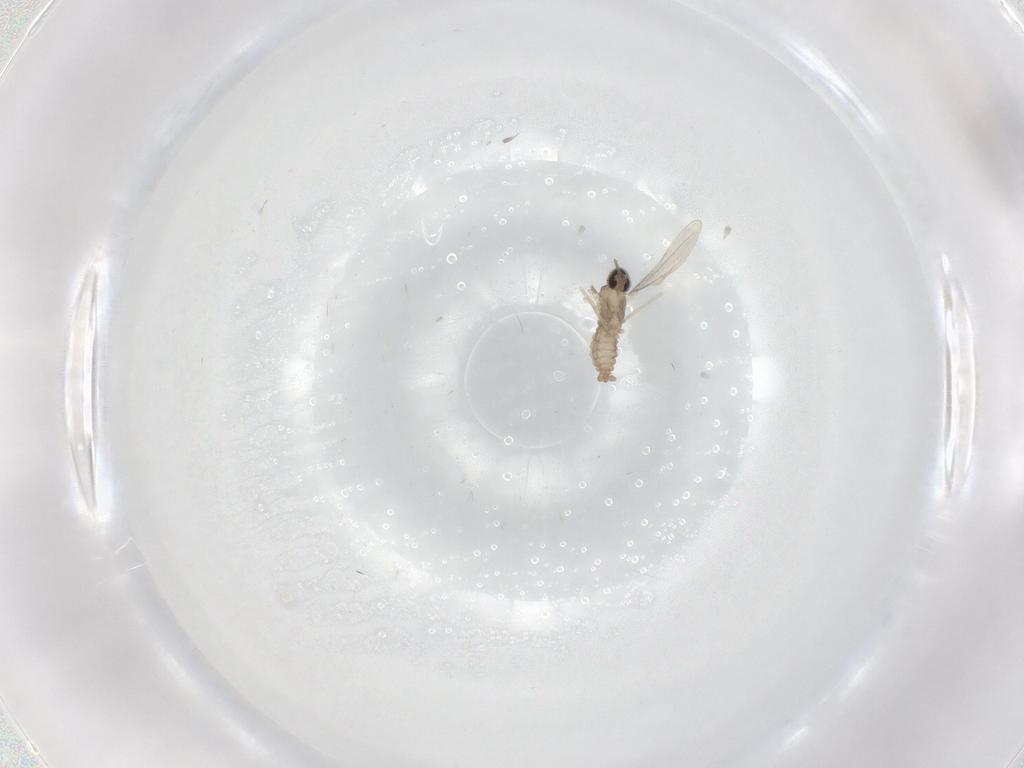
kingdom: Animalia
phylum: Arthropoda
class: Insecta
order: Diptera
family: Cecidomyiidae
